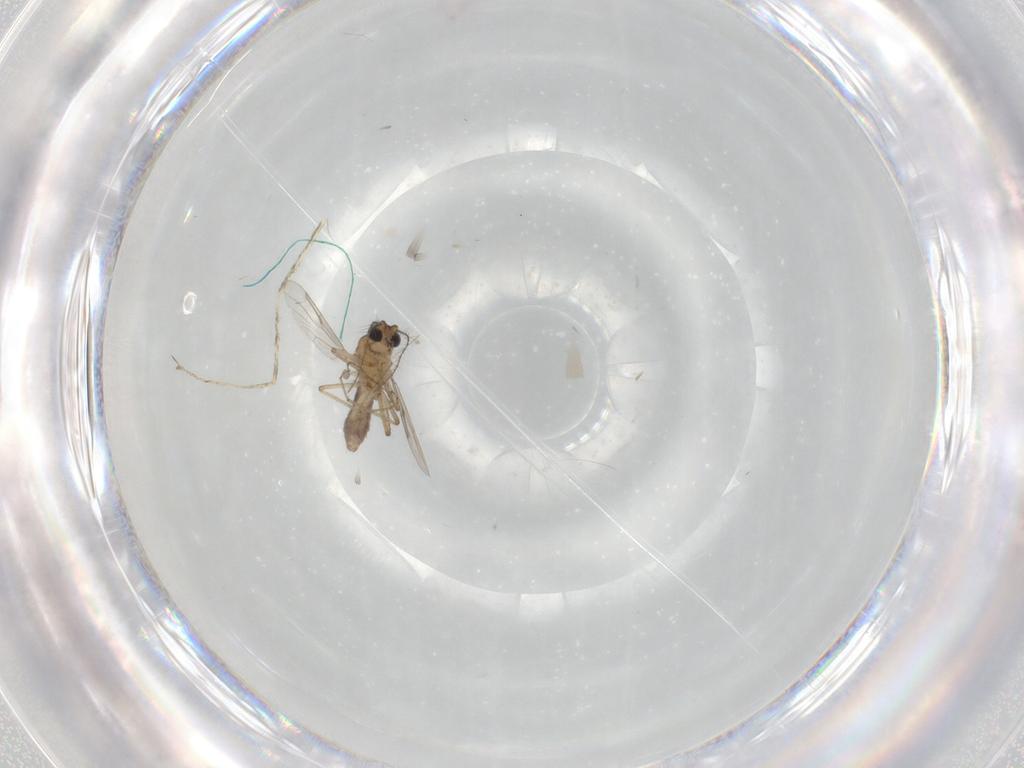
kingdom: Animalia
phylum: Arthropoda
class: Insecta
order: Diptera
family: Ceratopogonidae
